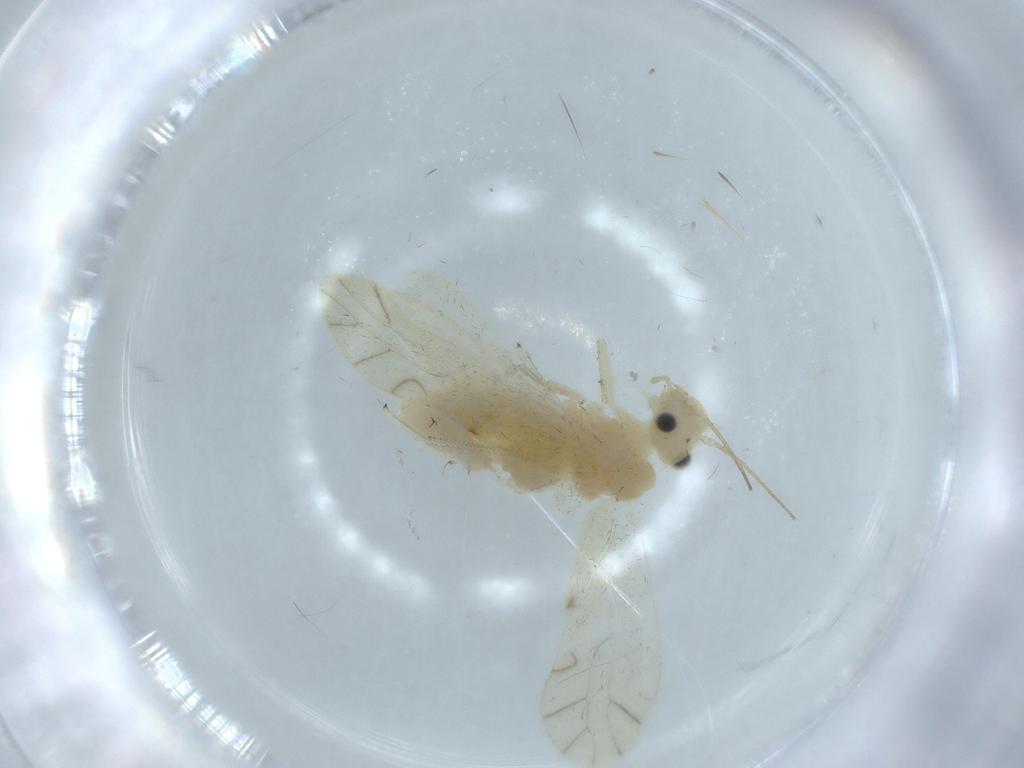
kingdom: Animalia
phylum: Arthropoda
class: Insecta
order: Psocodea
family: Caeciliusidae
